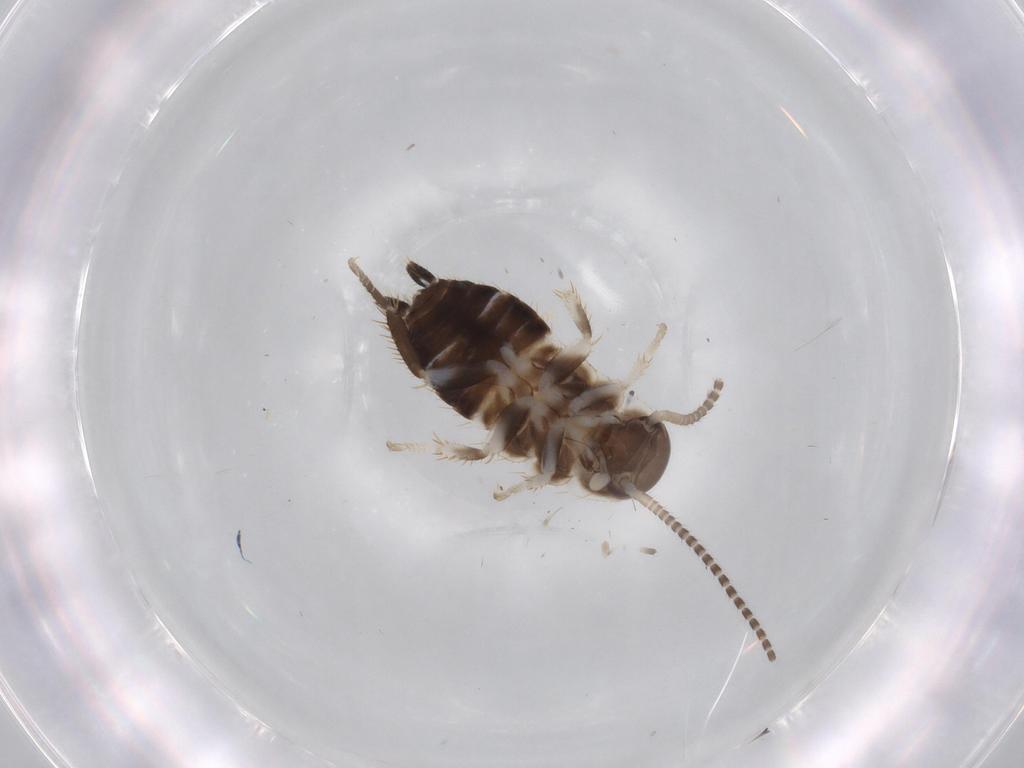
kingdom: Animalia
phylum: Arthropoda
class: Insecta
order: Blattodea
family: Ectobiidae
